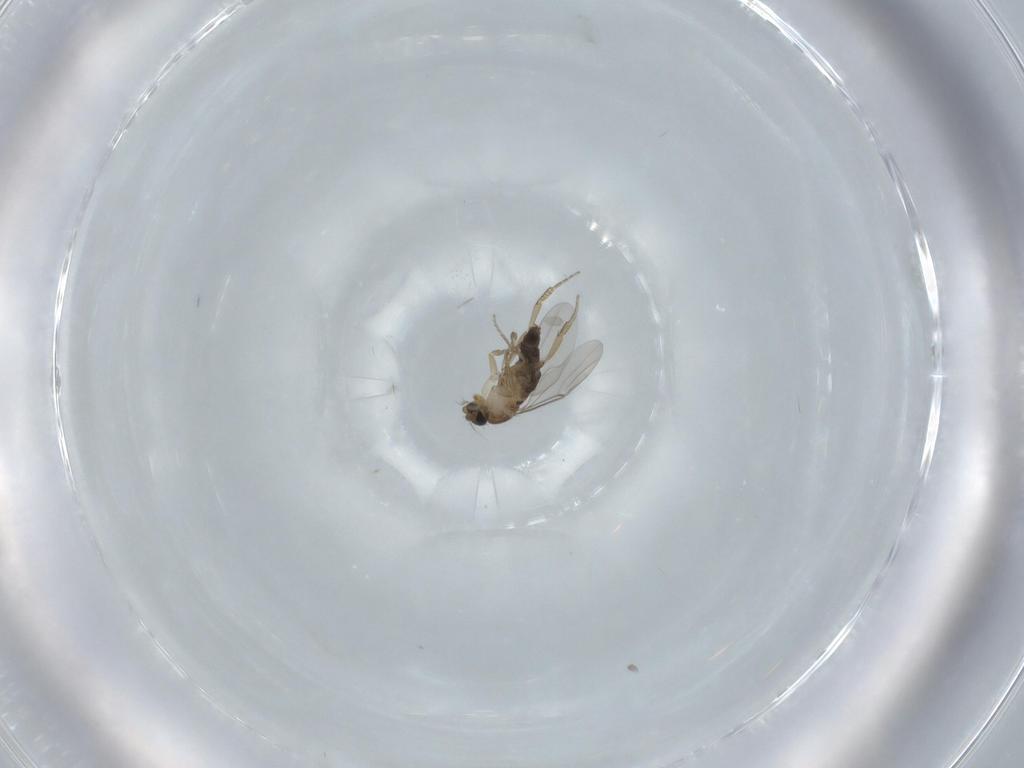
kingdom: Animalia
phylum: Arthropoda
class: Insecta
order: Diptera
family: Phoridae
